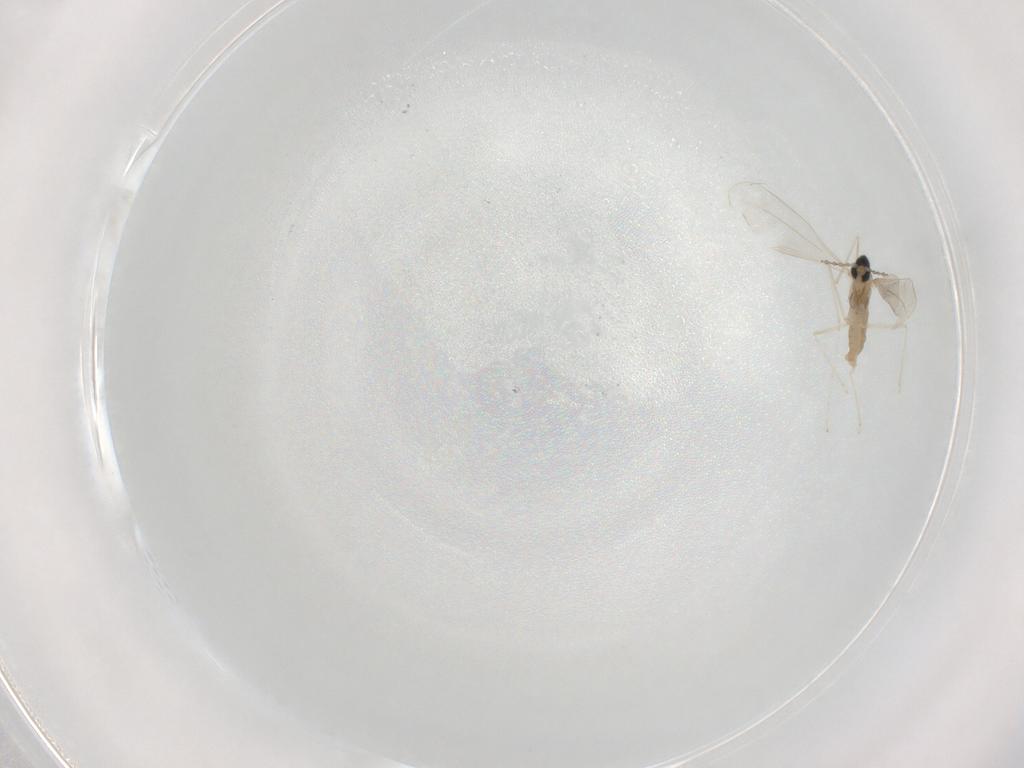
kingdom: Animalia
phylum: Arthropoda
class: Insecta
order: Diptera
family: Cecidomyiidae
